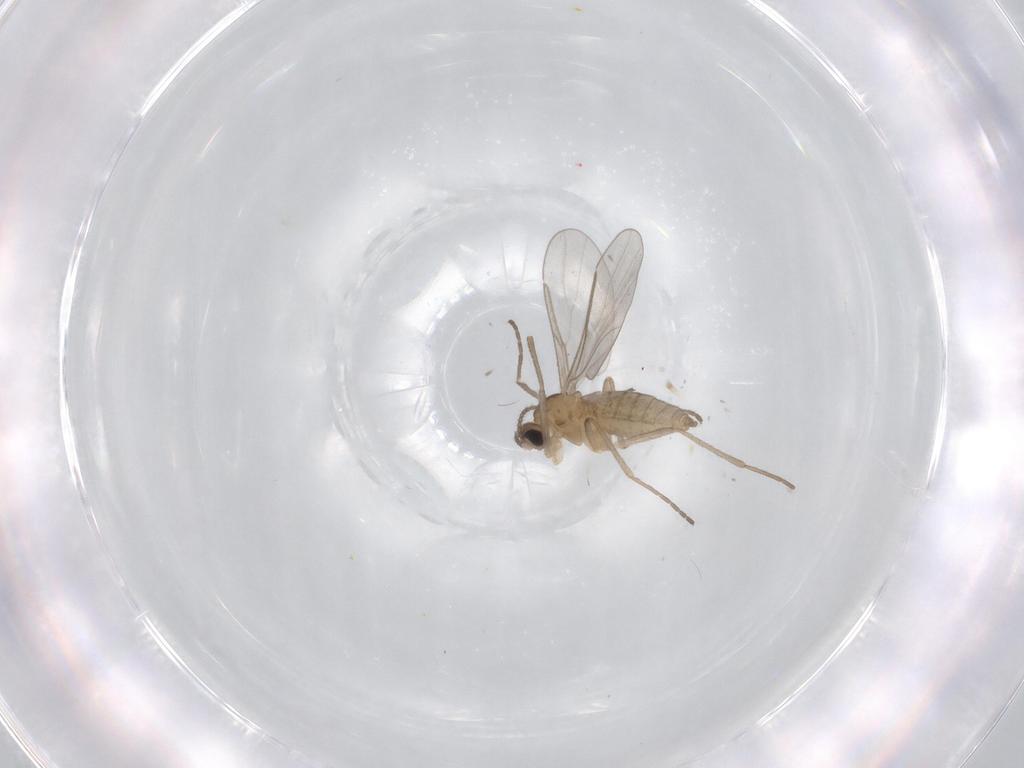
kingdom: Animalia
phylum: Arthropoda
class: Insecta
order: Diptera
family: Cecidomyiidae
